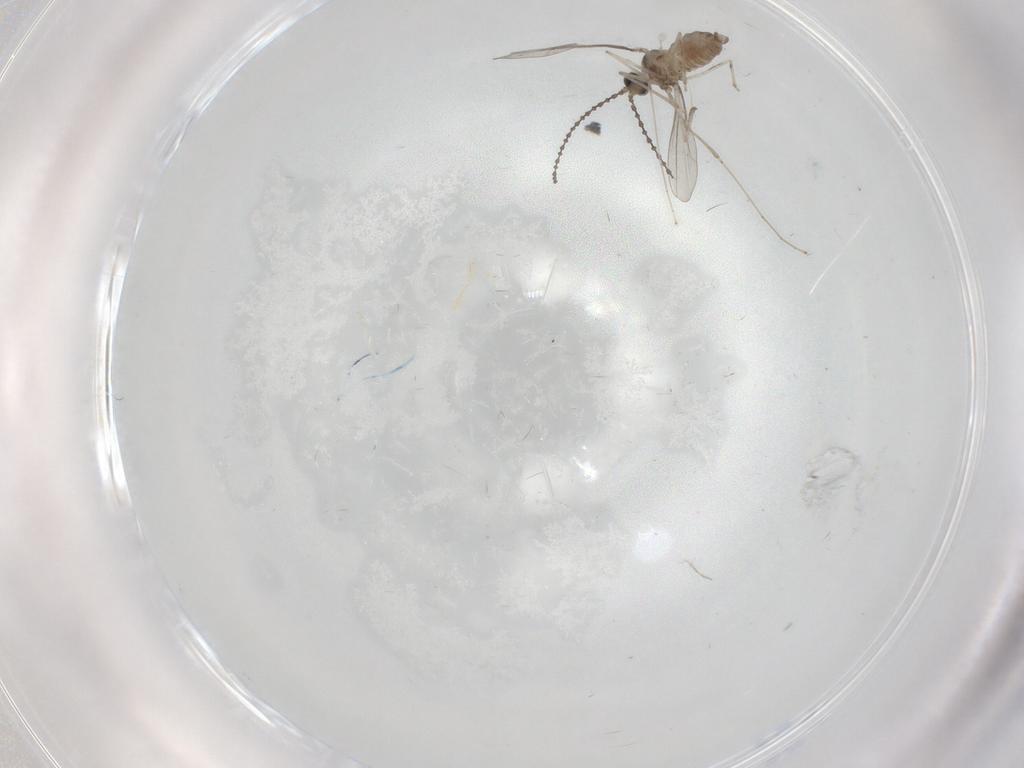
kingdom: Animalia
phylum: Arthropoda
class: Insecta
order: Diptera
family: Cecidomyiidae
